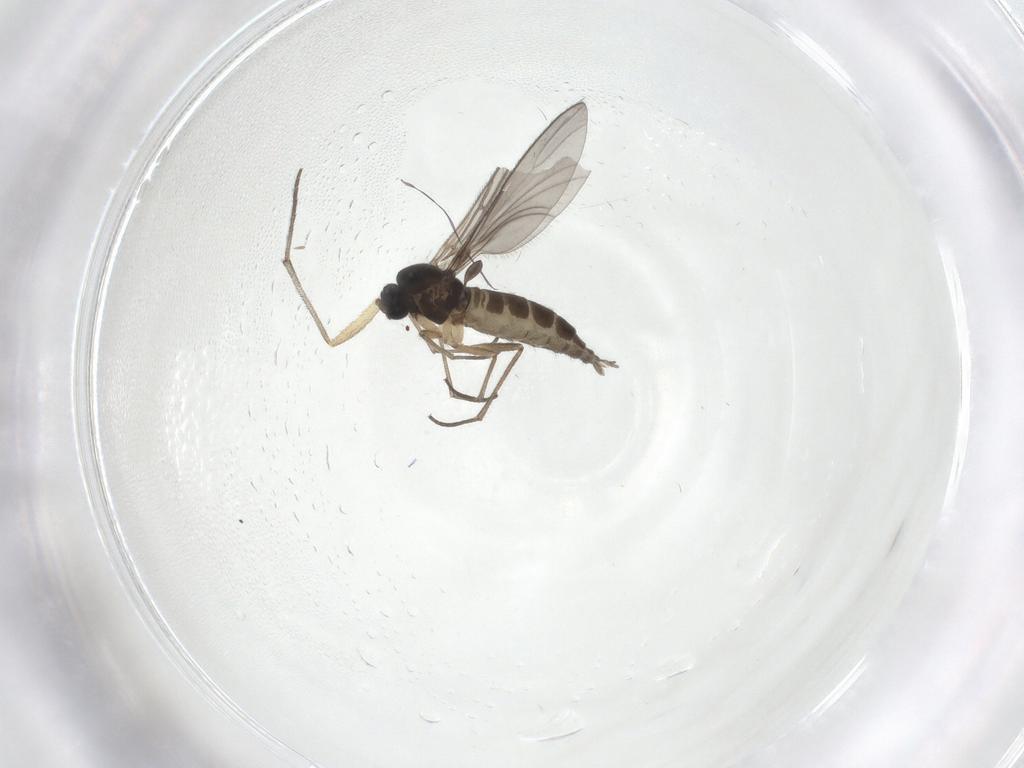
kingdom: Animalia
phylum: Arthropoda
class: Insecta
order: Diptera
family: Sciaridae
